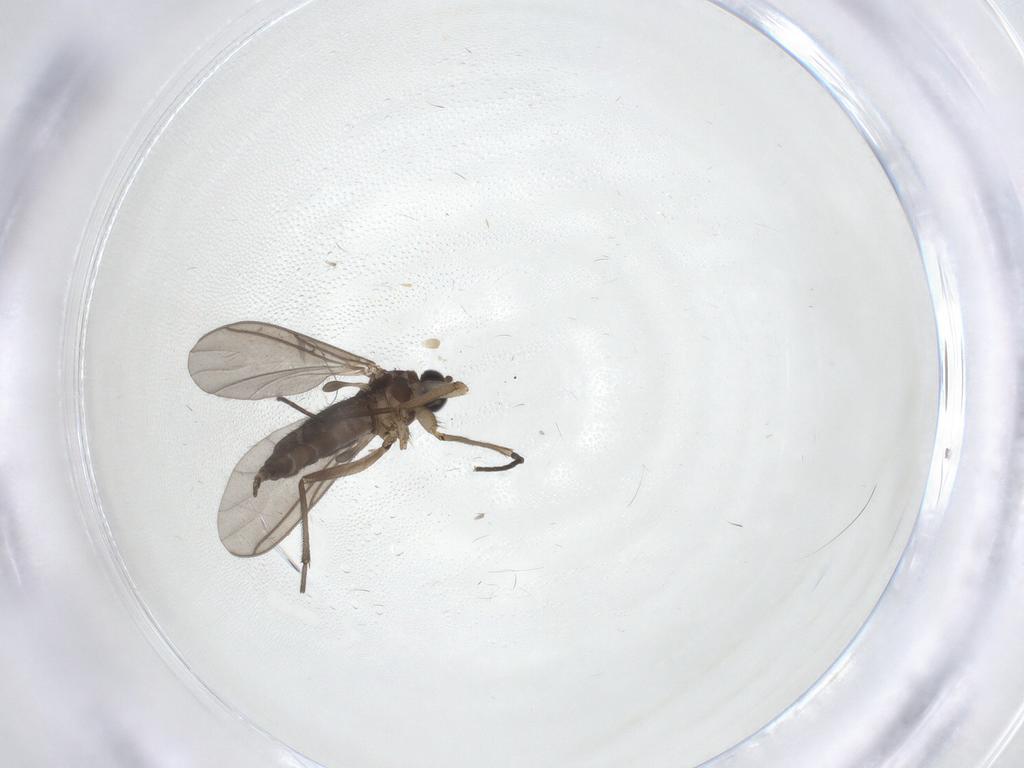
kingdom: Animalia
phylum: Arthropoda
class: Insecta
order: Diptera
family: Sciaridae
